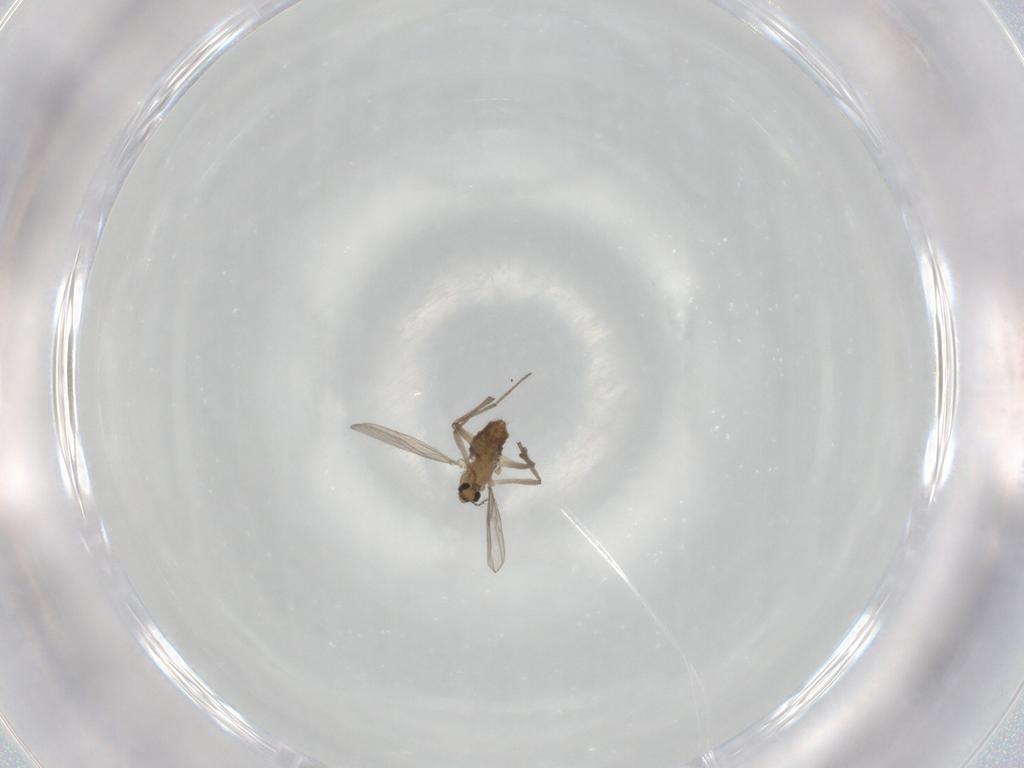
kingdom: Animalia
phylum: Arthropoda
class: Insecta
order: Diptera
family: Chironomidae
